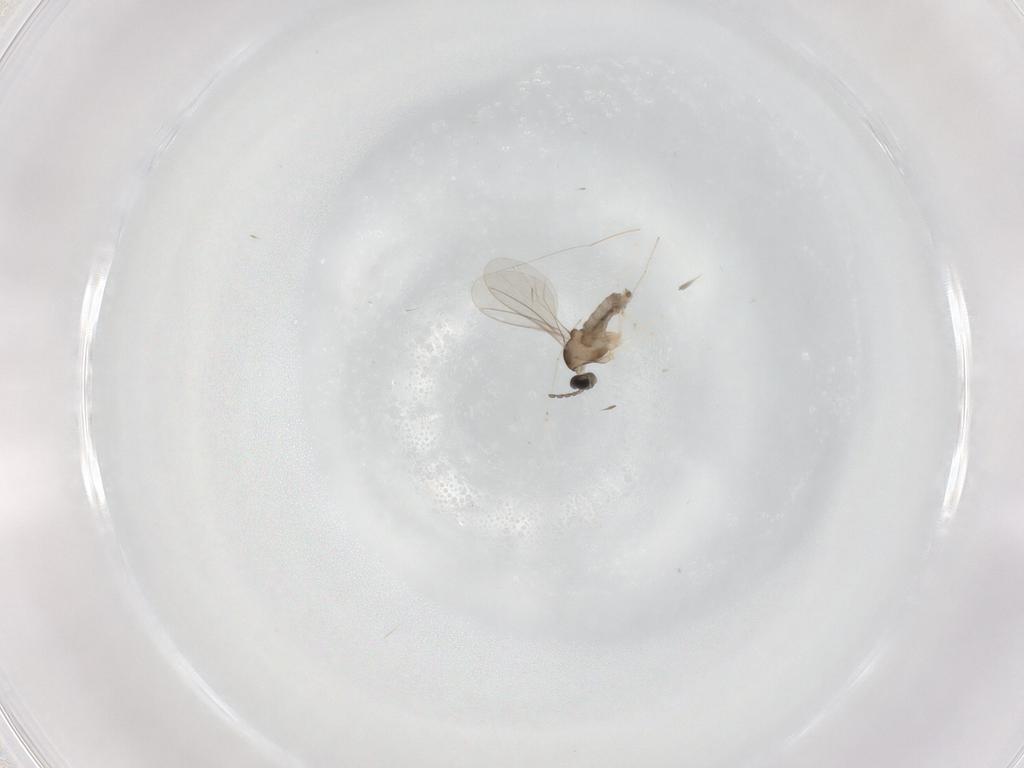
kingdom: Animalia
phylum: Arthropoda
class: Insecta
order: Diptera
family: Cecidomyiidae
